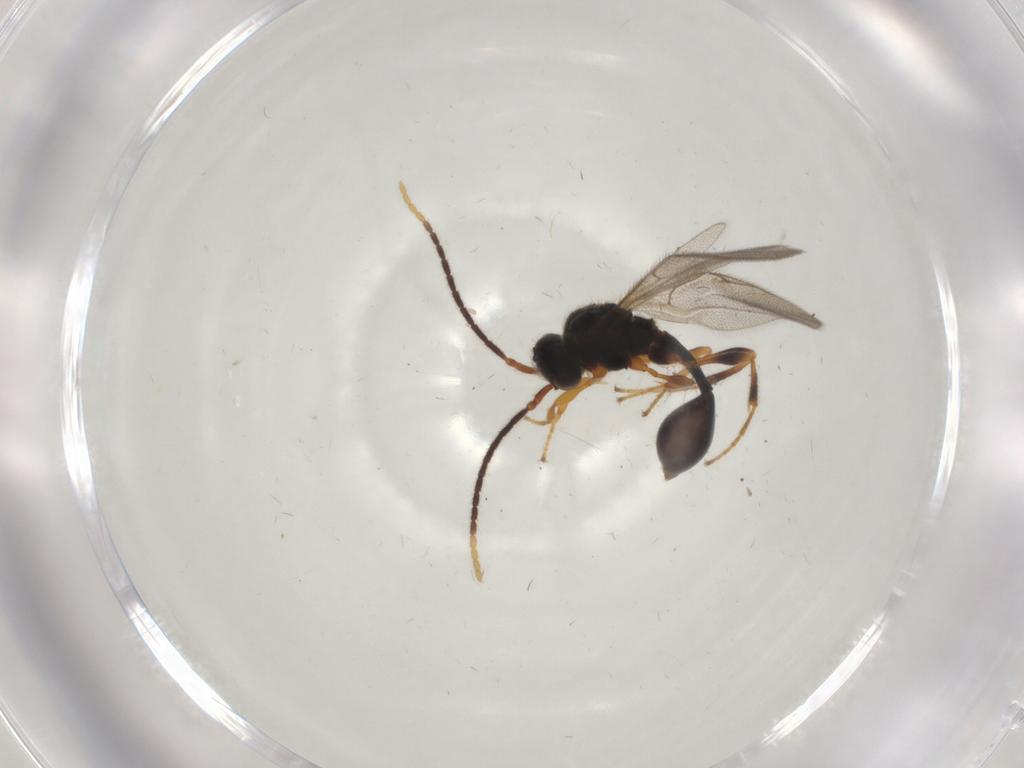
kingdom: Animalia
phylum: Arthropoda
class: Insecta
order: Hymenoptera
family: Diapriidae
